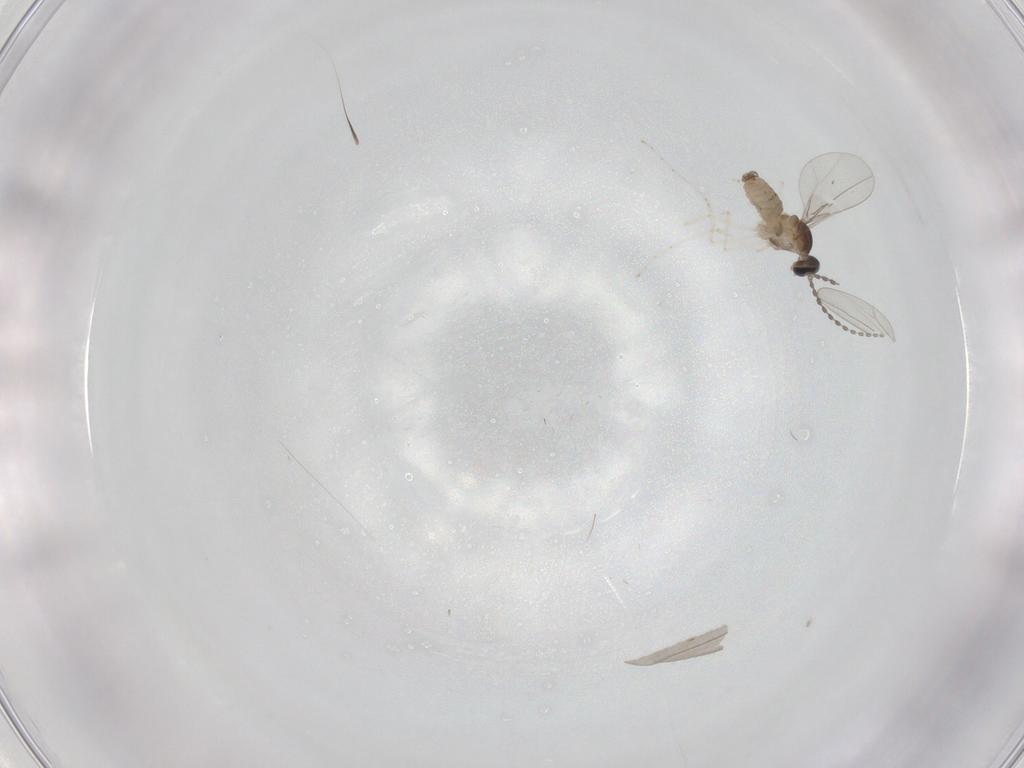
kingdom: Animalia
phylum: Arthropoda
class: Insecta
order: Diptera
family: Cecidomyiidae
